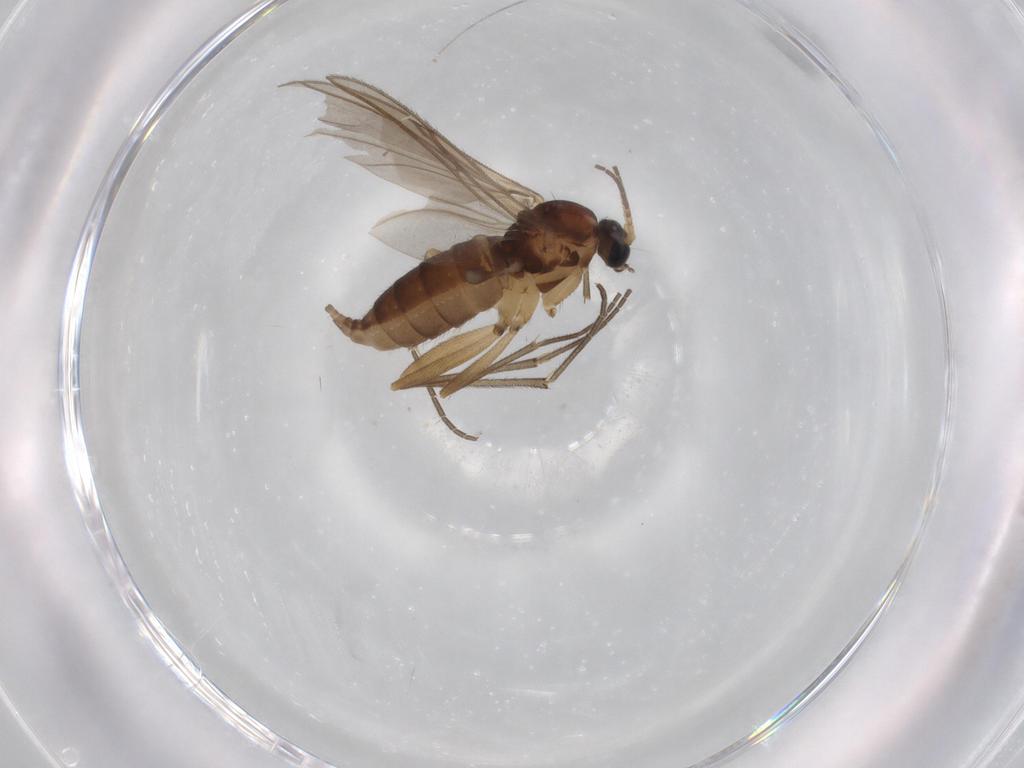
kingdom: Animalia
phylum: Arthropoda
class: Insecta
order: Diptera
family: Sciaridae
